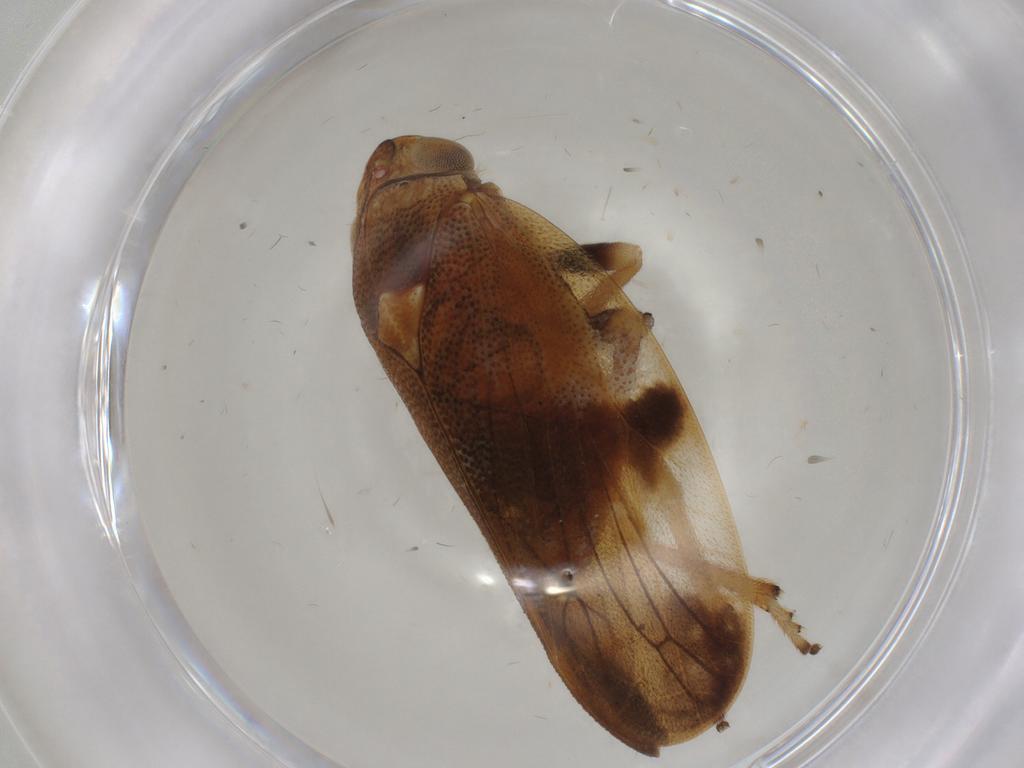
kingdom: Animalia
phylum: Arthropoda
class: Insecta
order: Hemiptera
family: Aphrophoridae
